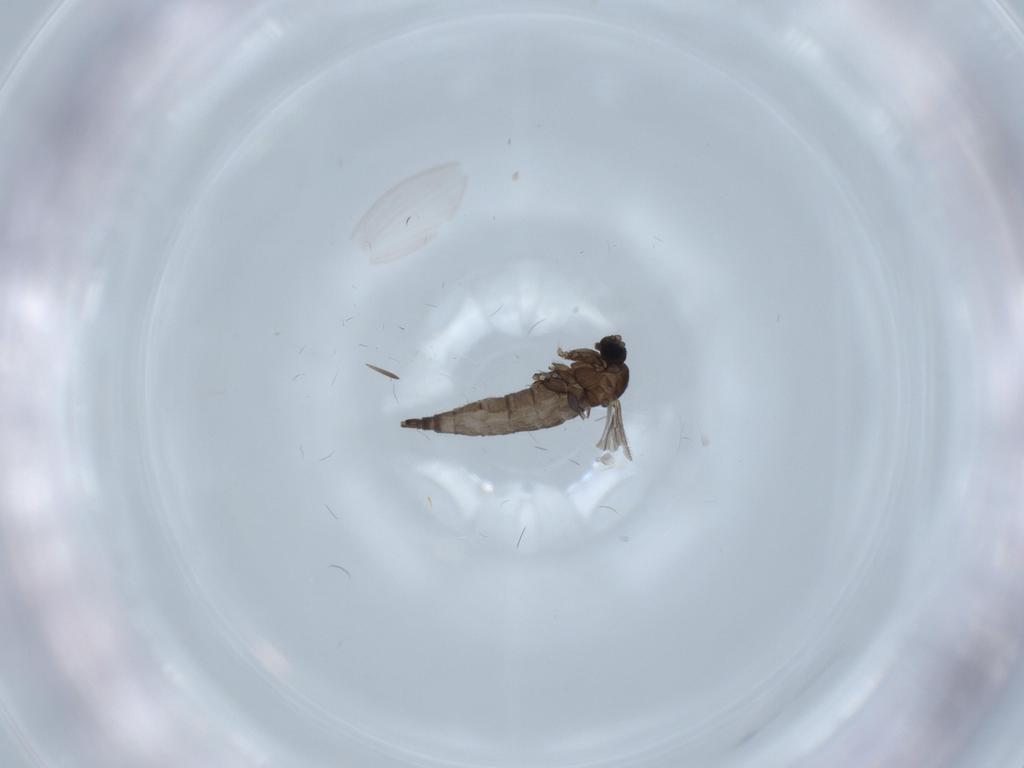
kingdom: Animalia
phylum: Arthropoda
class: Insecta
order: Diptera
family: Sciaridae
